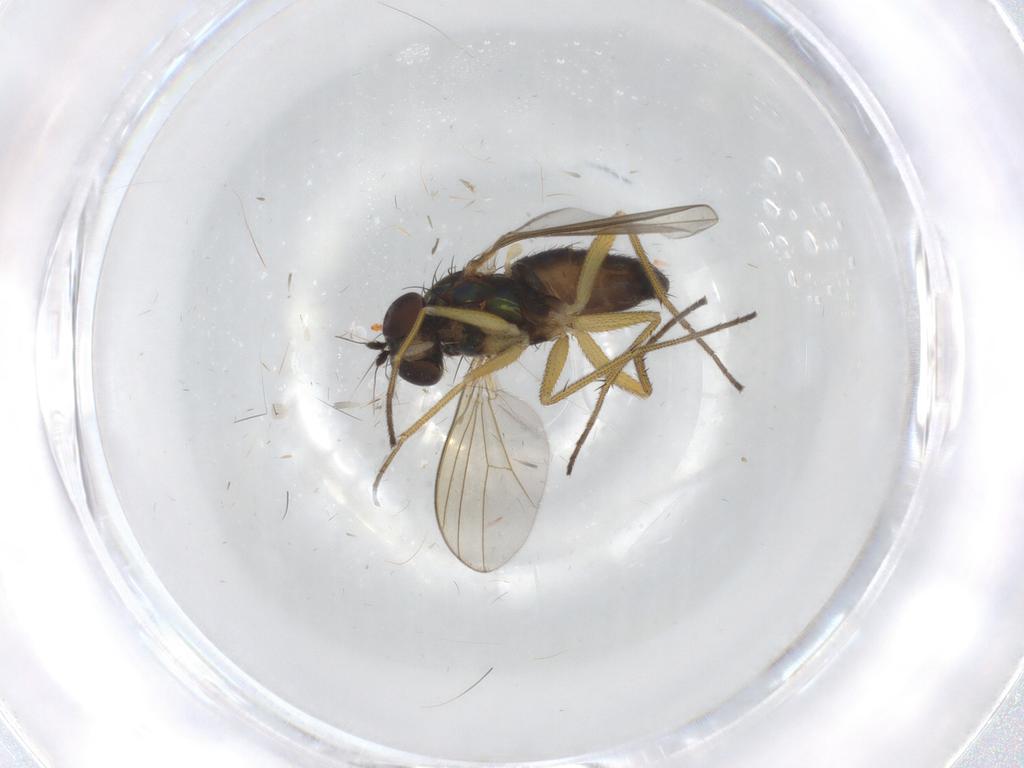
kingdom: Animalia
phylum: Arthropoda
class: Insecta
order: Diptera
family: Dolichopodidae
